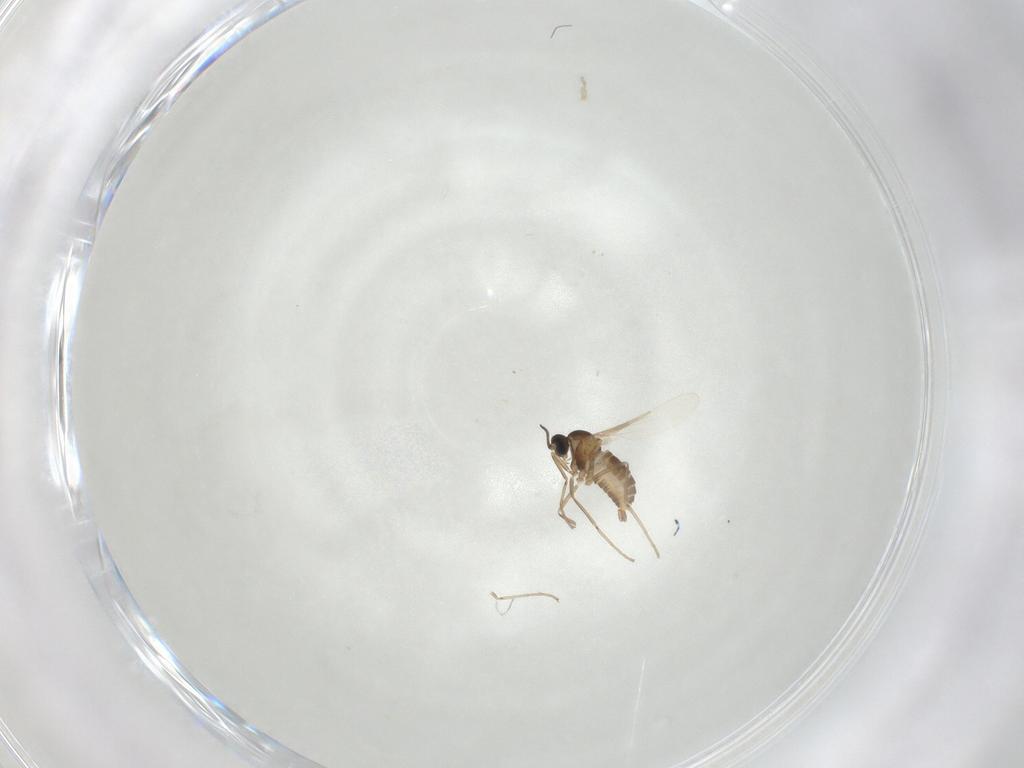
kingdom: Animalia
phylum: Arthropoda
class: Insecta
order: Diptera
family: Cecidomyiidae
